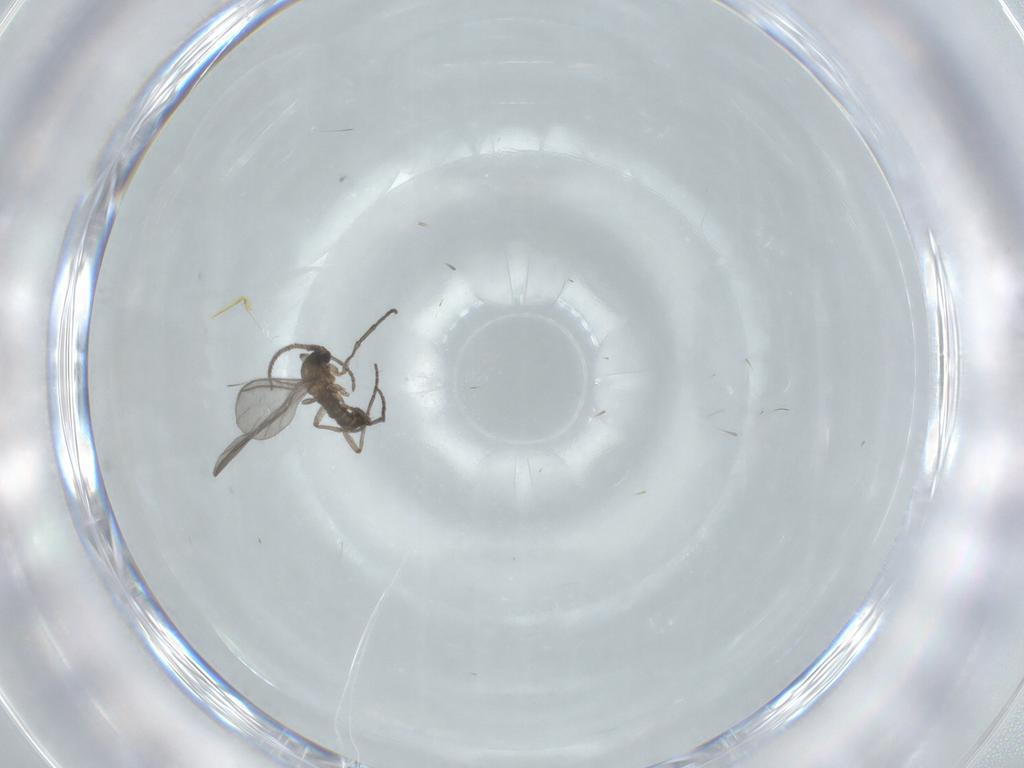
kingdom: Animalia
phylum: Arthropoda
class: Insecta
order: Diptera
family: Sciaridae
